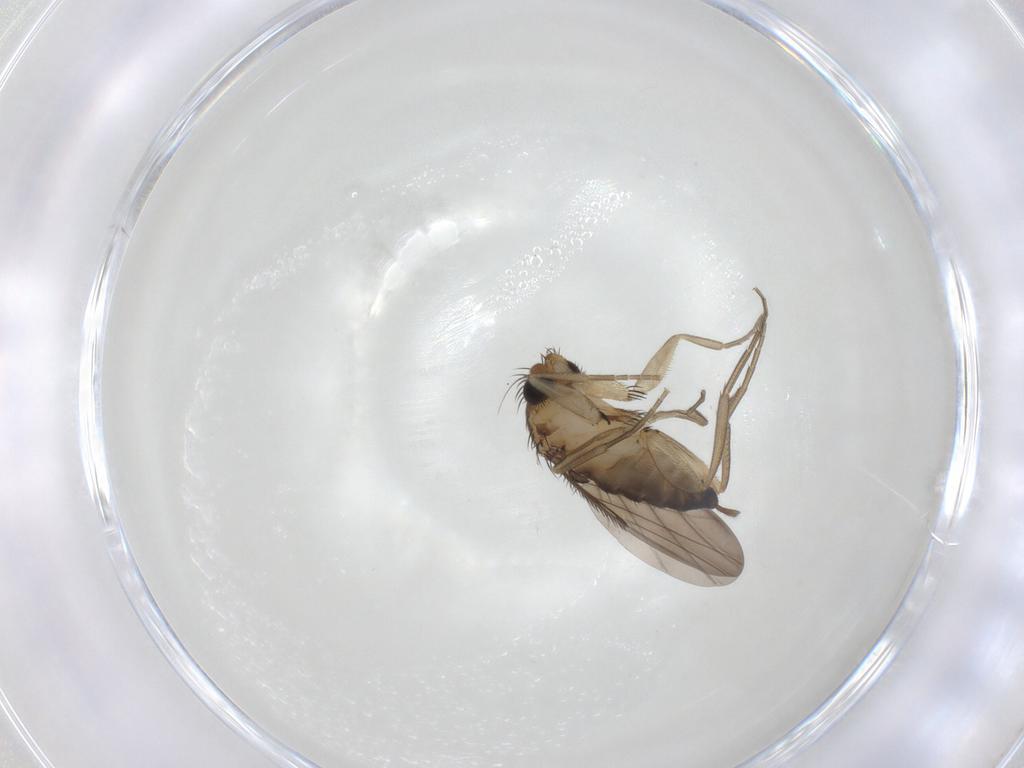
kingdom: Animalia
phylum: Arthropoda
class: Insecta
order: Diptera
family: Phoridae
